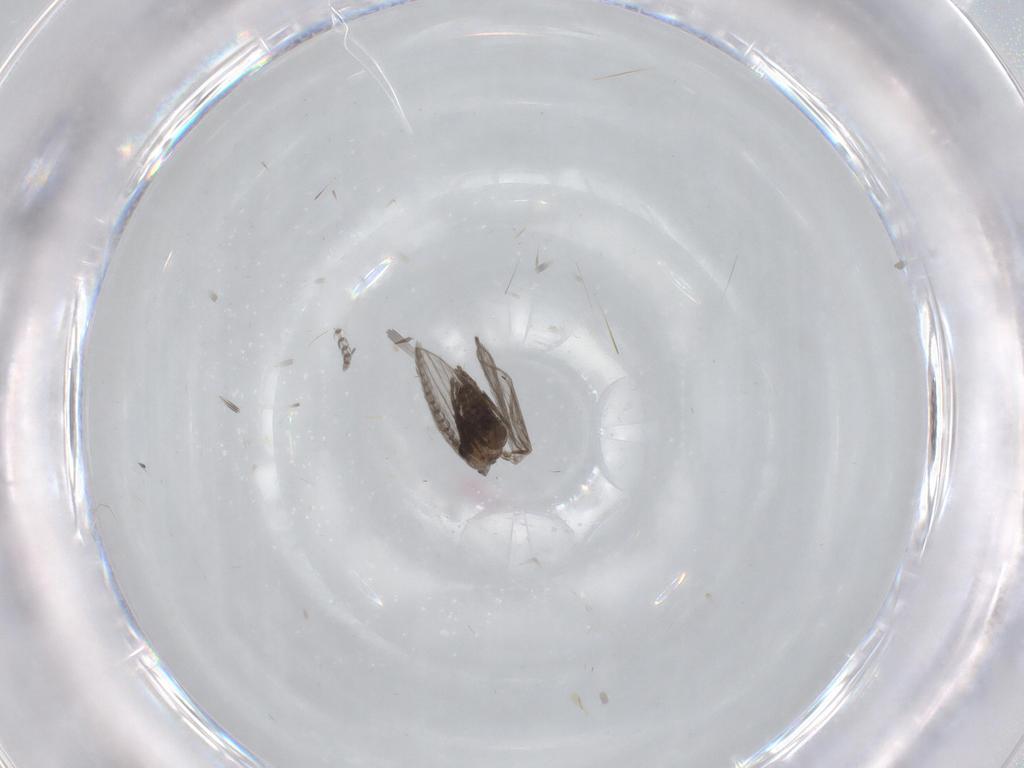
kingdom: Animalia
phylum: Arthropoda
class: Insecta
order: Diptera
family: Psychodidae
